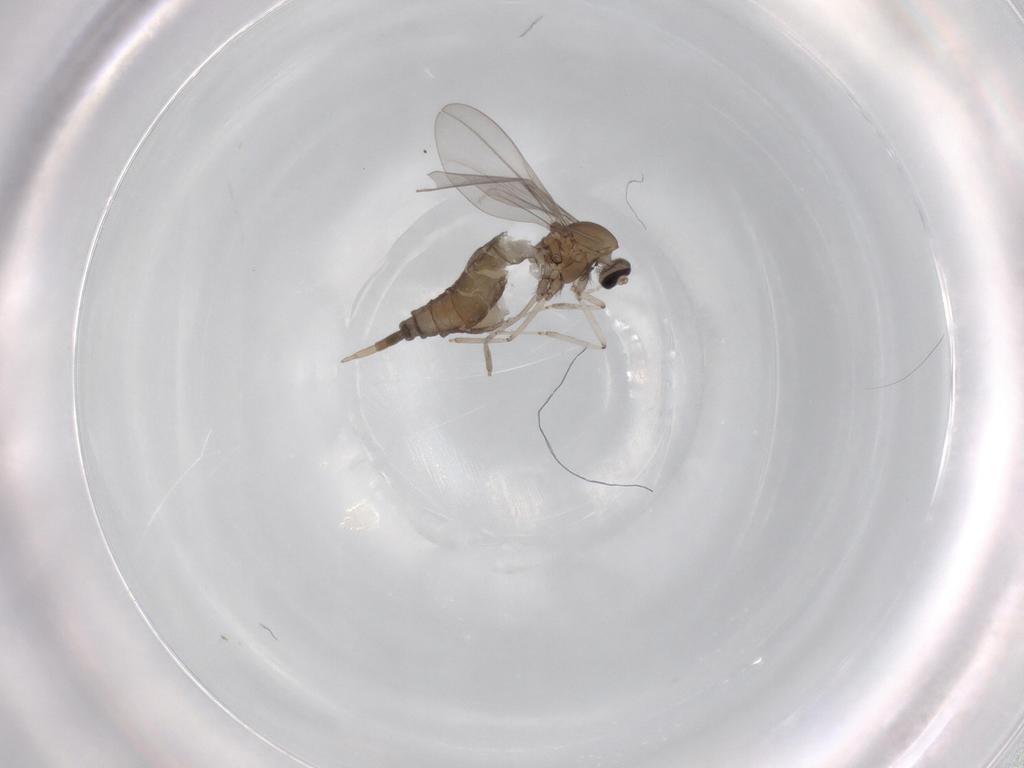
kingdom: Animalia
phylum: Arthropoda
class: Insecta
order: Diptera
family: Cecidomyiidae
